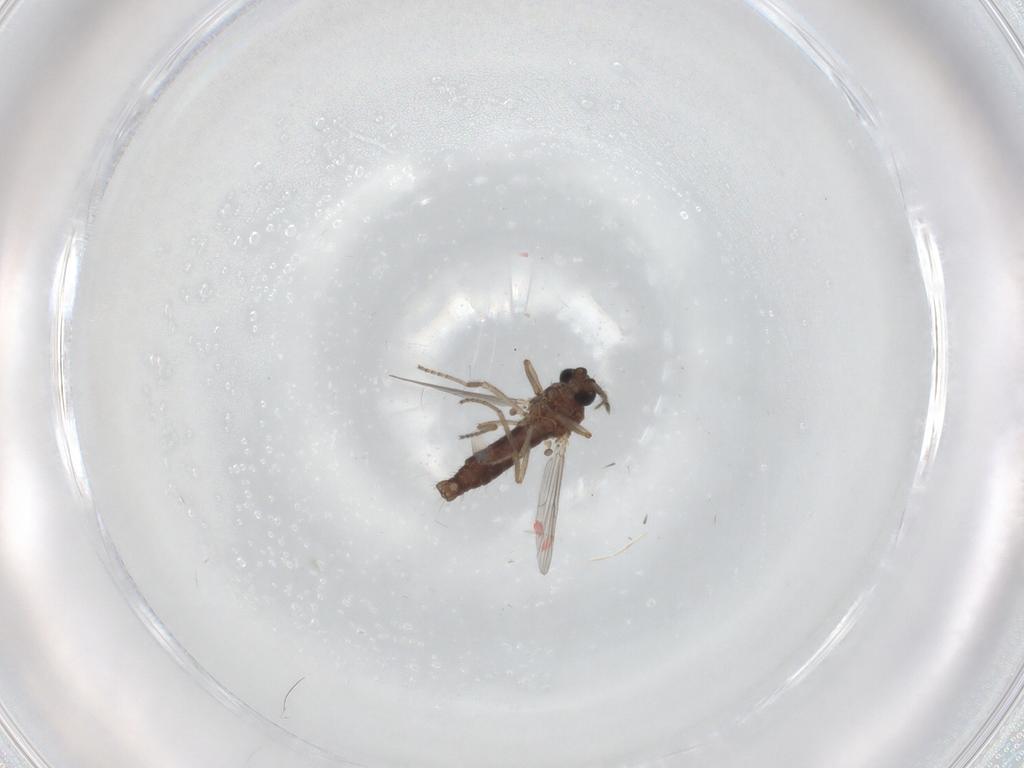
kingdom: Animalia
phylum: Arthropoda
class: Insecta
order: Diptera
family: Ceratopogonidae
